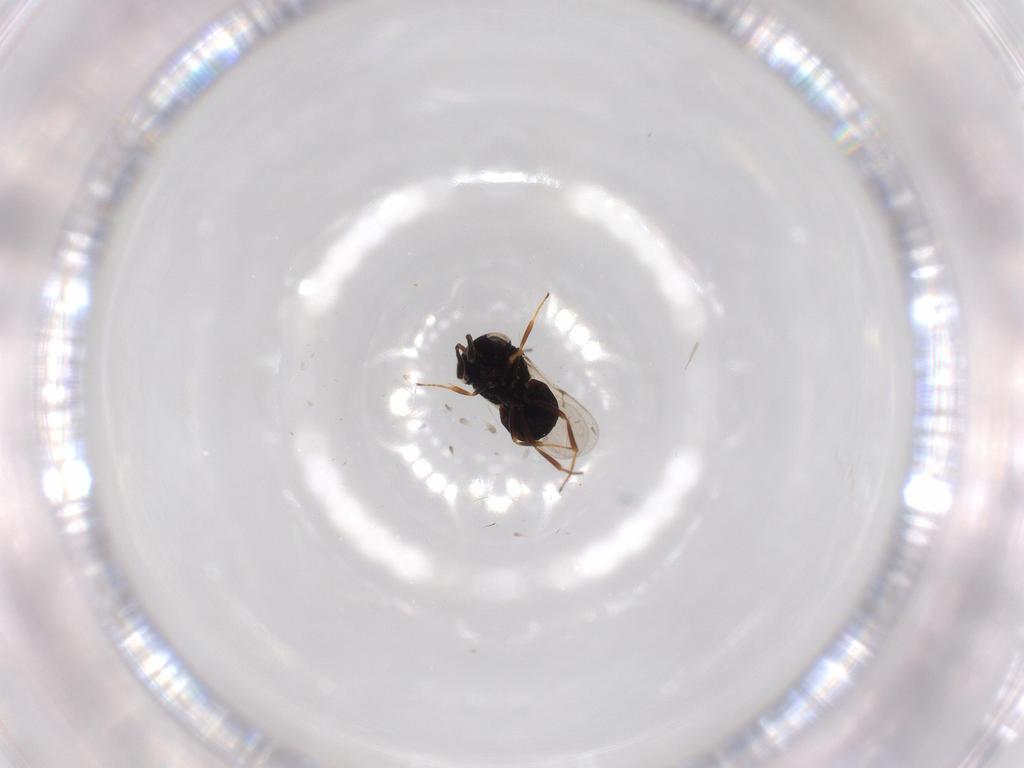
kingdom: Animalia
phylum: Arthropoda
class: Insecta
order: Hymenoptera
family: Scelionidae
